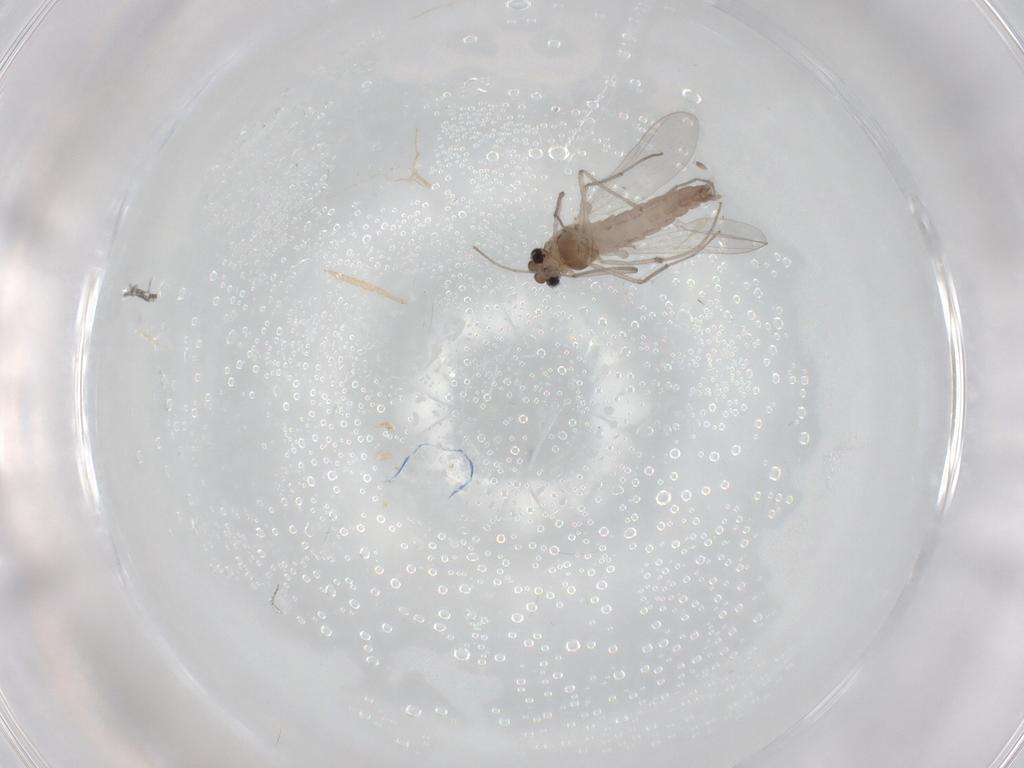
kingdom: Animalia
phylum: Arthropoda
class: Insecta
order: Diptera
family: Chironomidae
